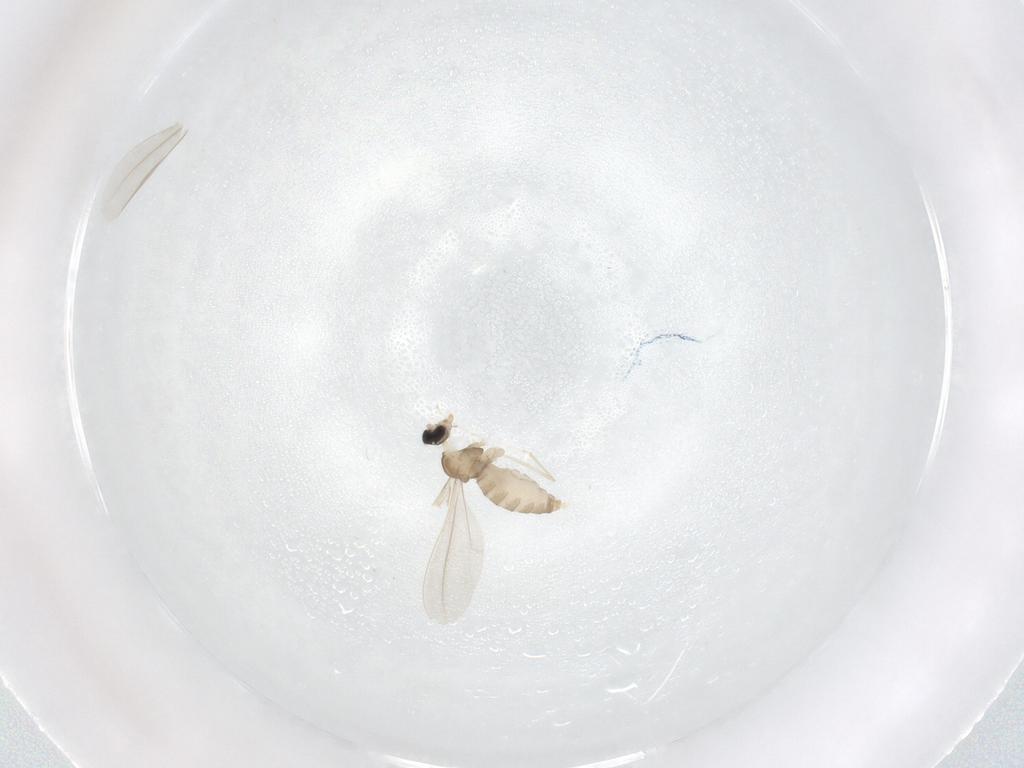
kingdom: Animalia
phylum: Arthropoda
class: Insecta
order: Diptera
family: Cecidomyiidae
